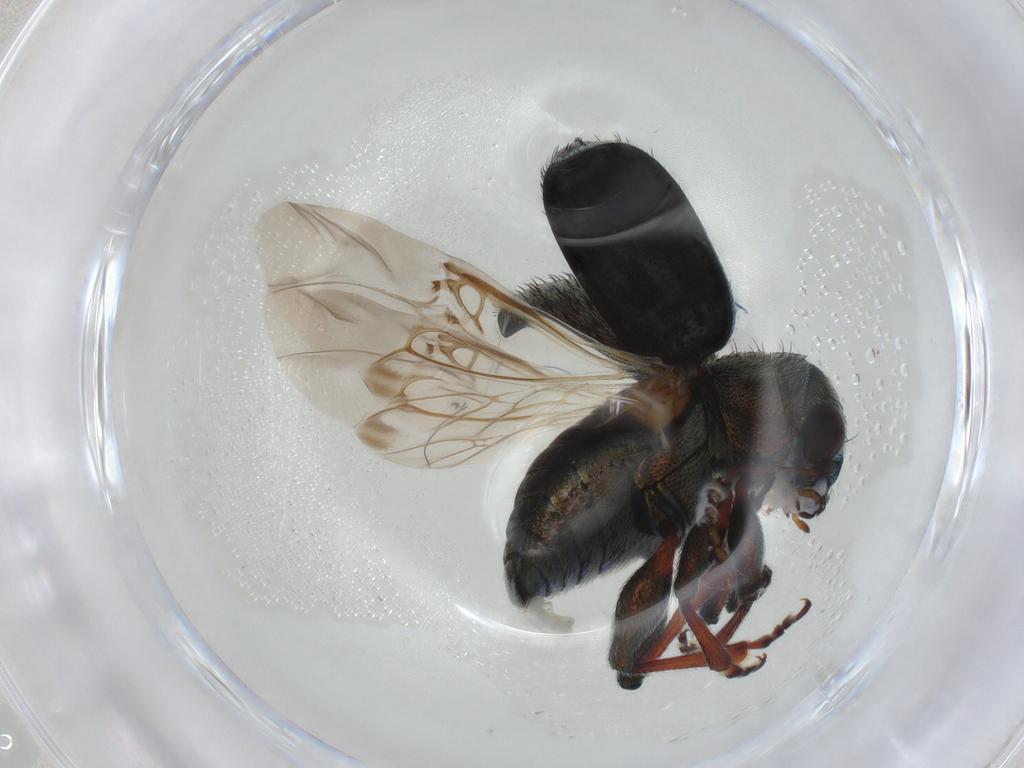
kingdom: Animalia
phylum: Arthropoda
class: Insecta
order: Coleoptera
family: Chrysomelidae
